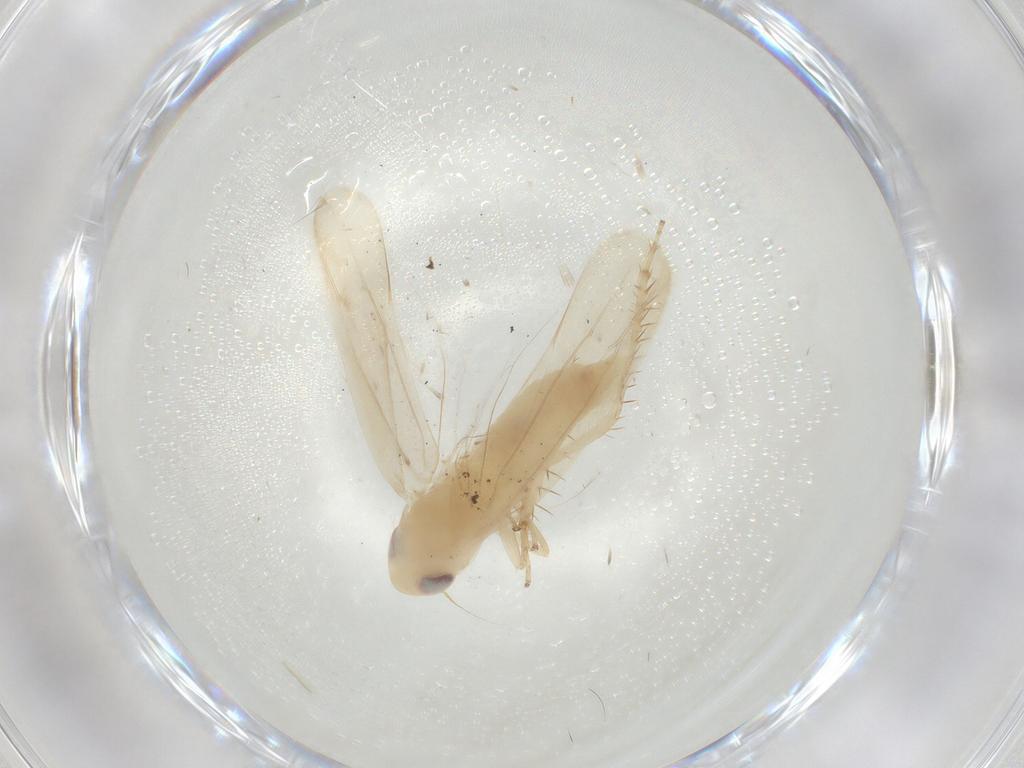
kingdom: Animalia
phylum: Arthropoda
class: Insecta
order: Hemiptera
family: Cicadellidae
